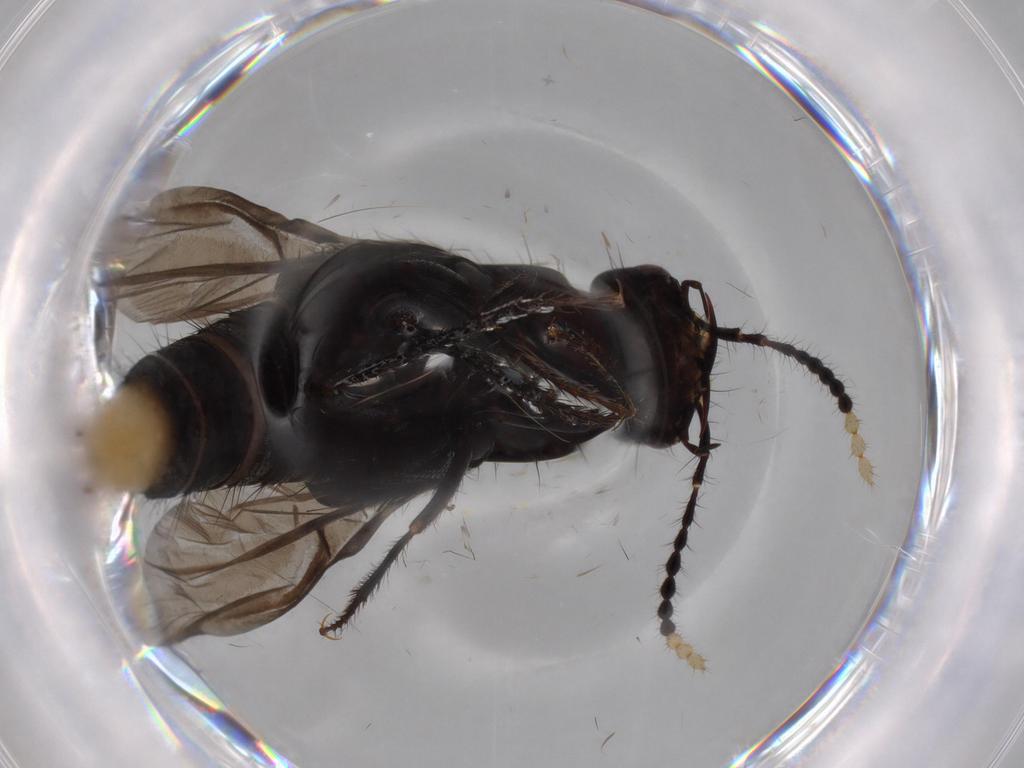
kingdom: Animalia
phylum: Arthropoda
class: Insecta
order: Coleoptera
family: Staphylinidae
